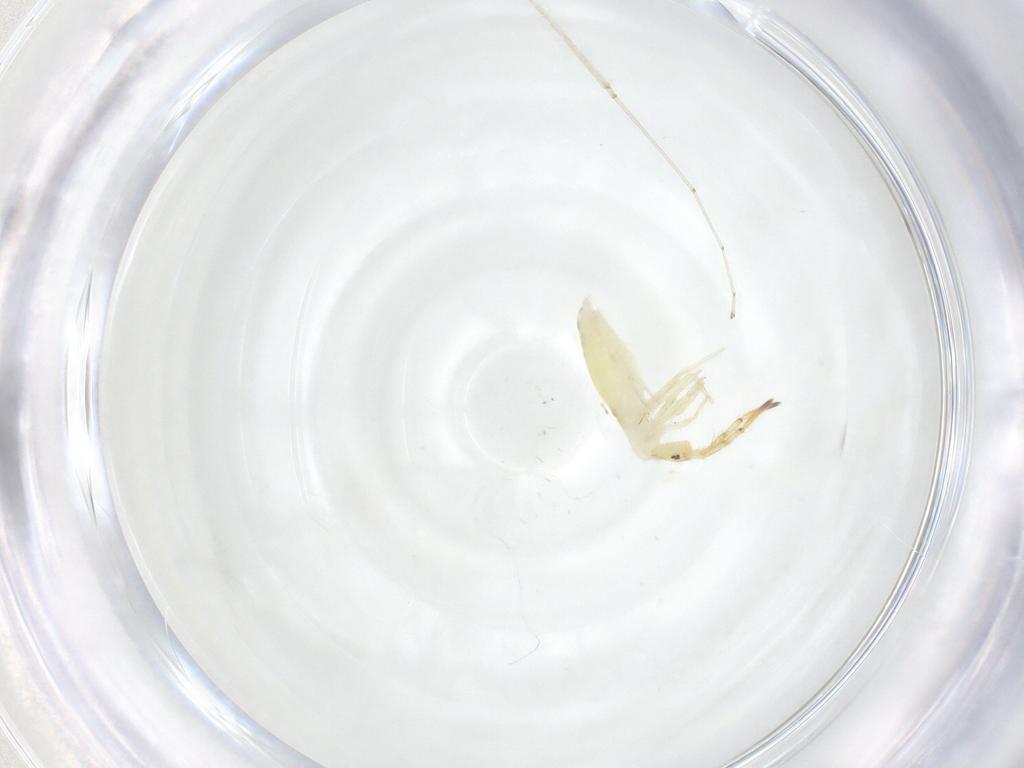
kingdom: Animalia
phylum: Arthropoda
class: Collembola
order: Entomobryomorpha
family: Entomobryidae
